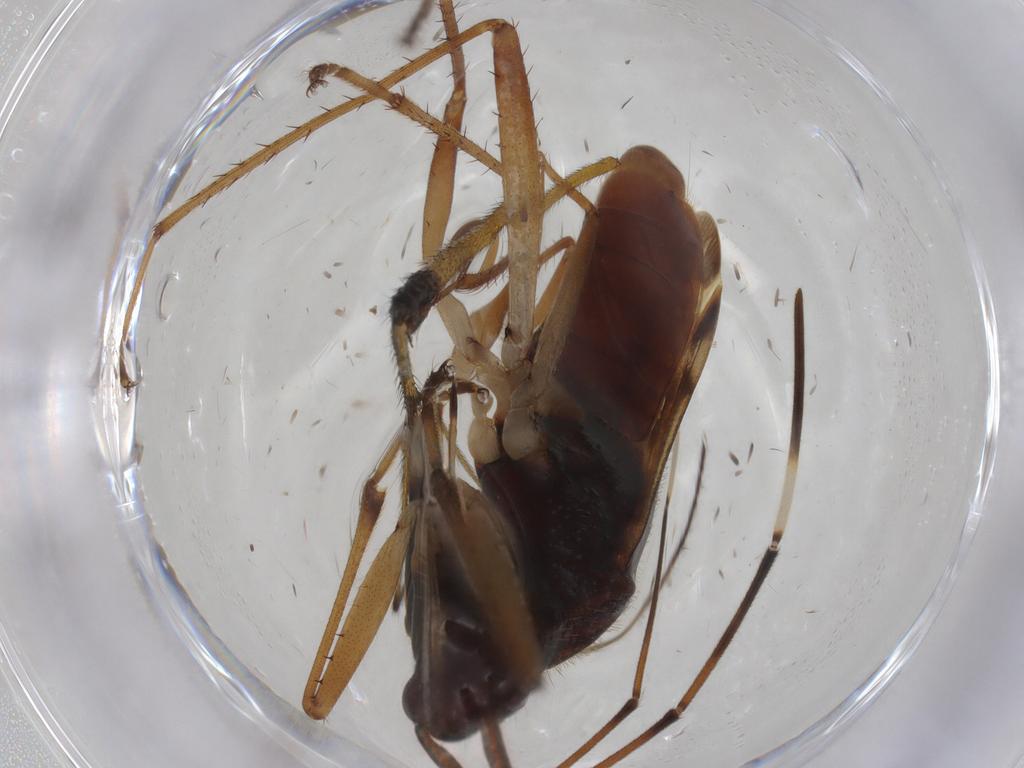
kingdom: Animalia
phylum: Arthropoda
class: Insecta
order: Hemiptera
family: Rhyparochromidae
